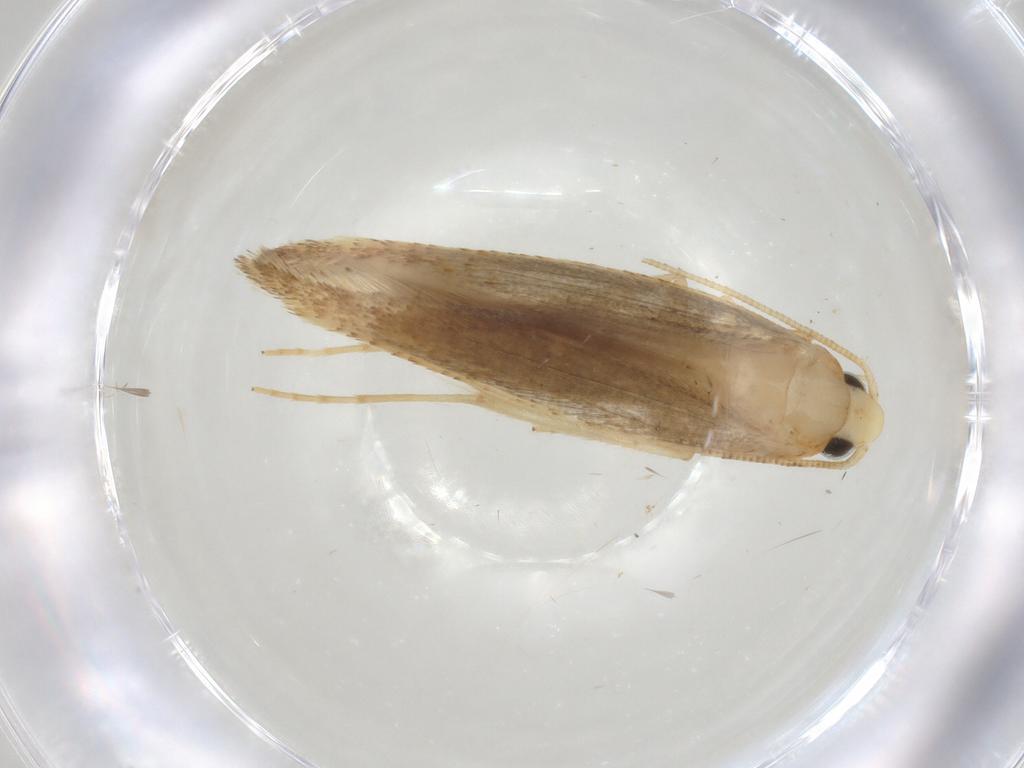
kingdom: Animalia
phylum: Arthropoda
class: Insecta
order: Lepidoptera
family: Tineidae
